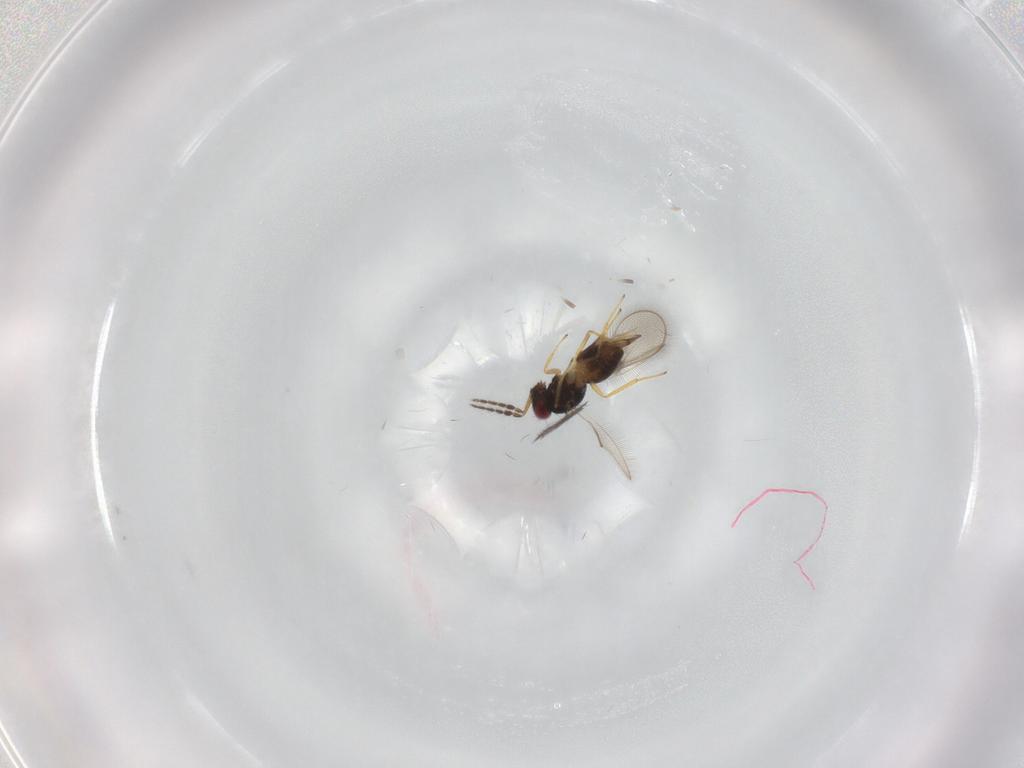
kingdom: Animalia
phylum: Arthropoda
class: Insecta
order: Hymenoptera
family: Eulophidae
